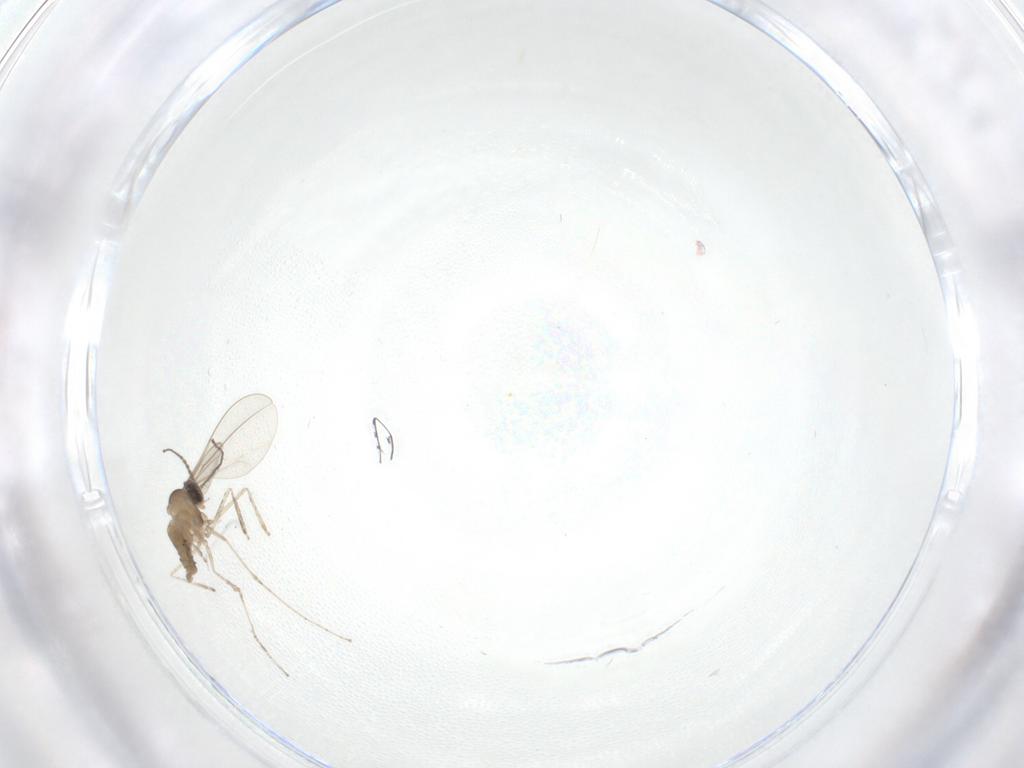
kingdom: Animalia
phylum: Arthropoda
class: Insecta
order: Diptera
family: Cecidomyiidae
